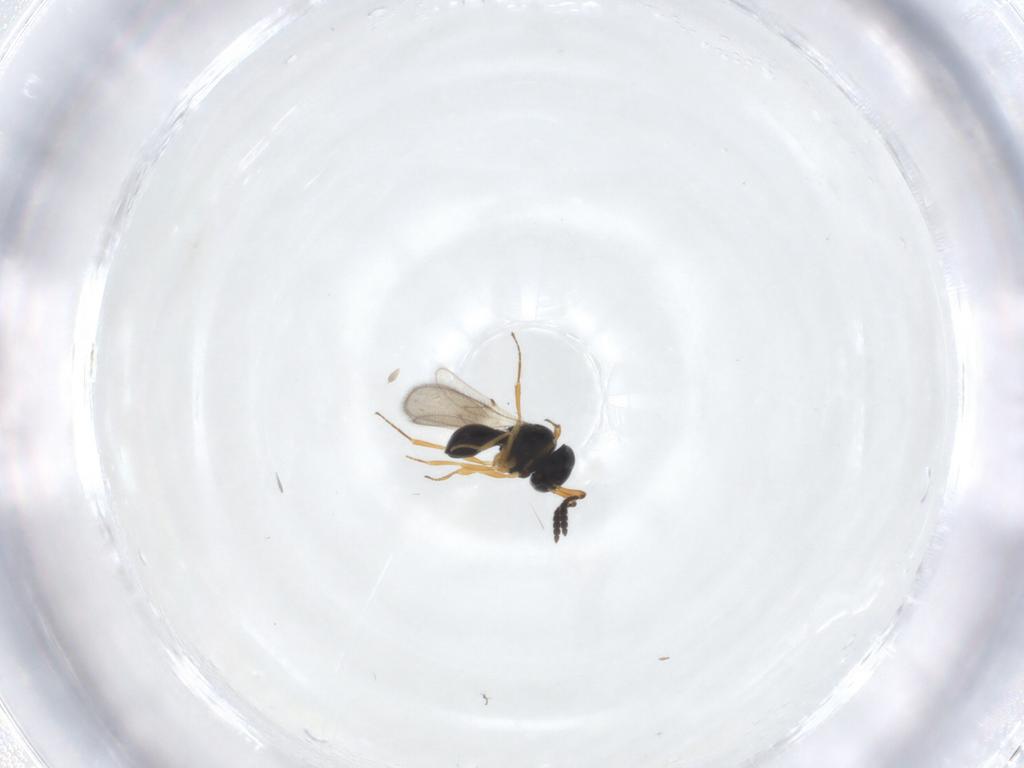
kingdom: Animalia
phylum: Arthropoda
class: Insecta
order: Hymenoptera
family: Scelionidae
